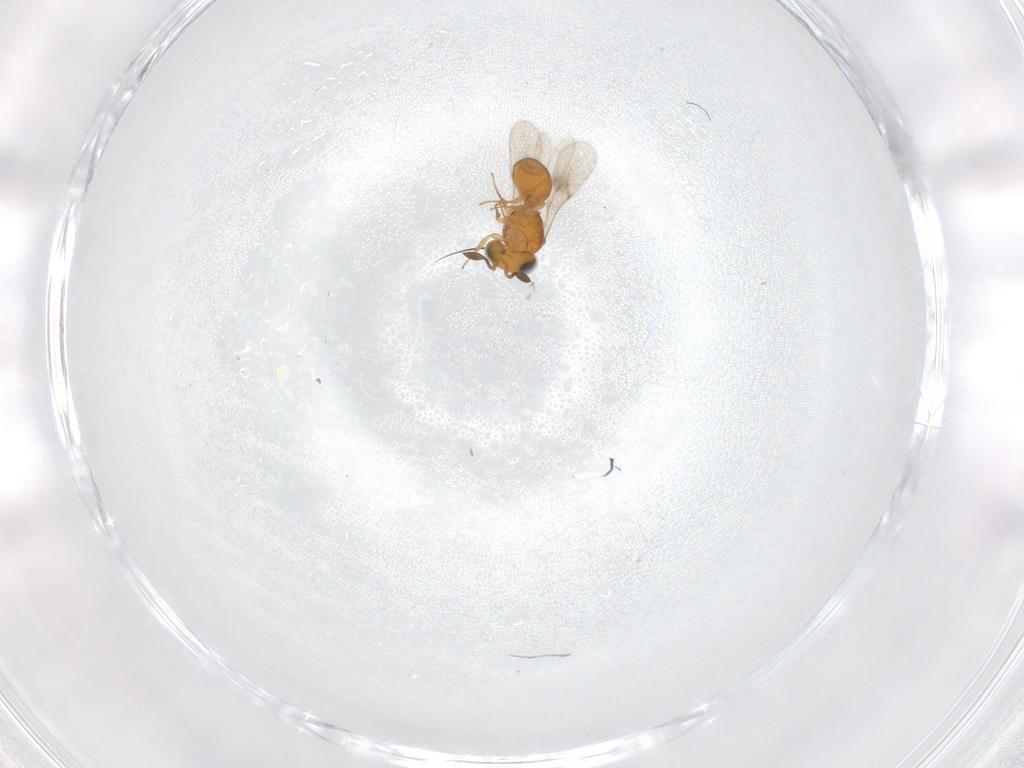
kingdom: Animalia
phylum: Arthropoda
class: Insecta
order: Hymenoptera
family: Scelionidae
